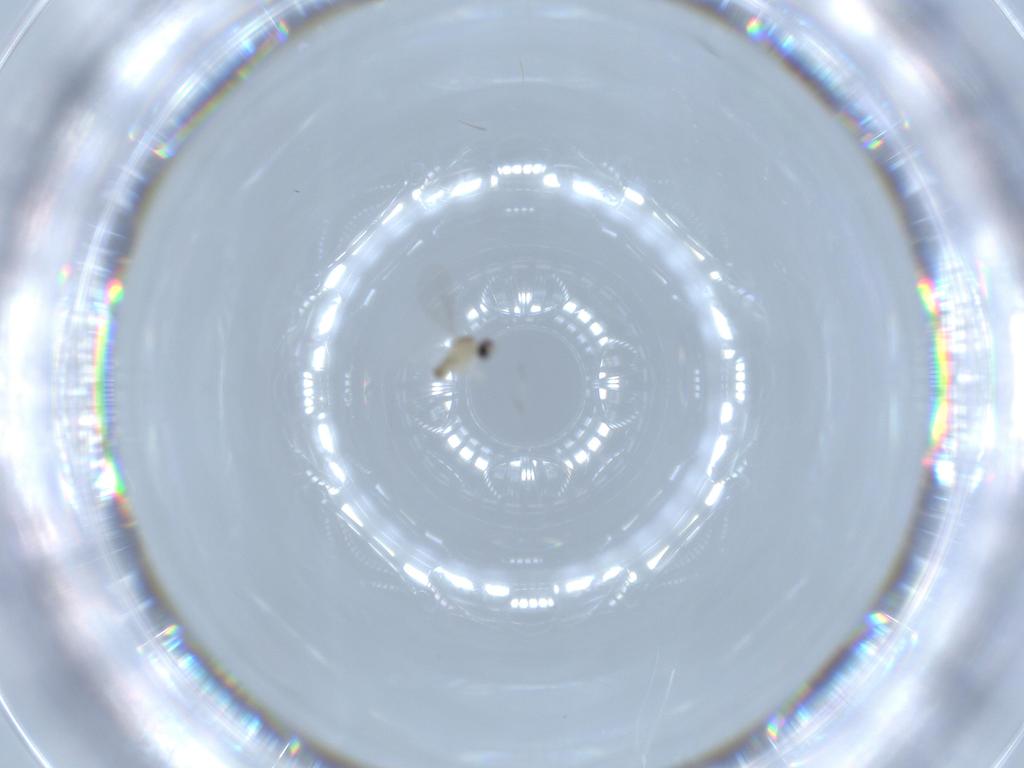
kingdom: Animalia
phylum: Arthropoda
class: Insecta
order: Diptera
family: Cecidomyiidae
